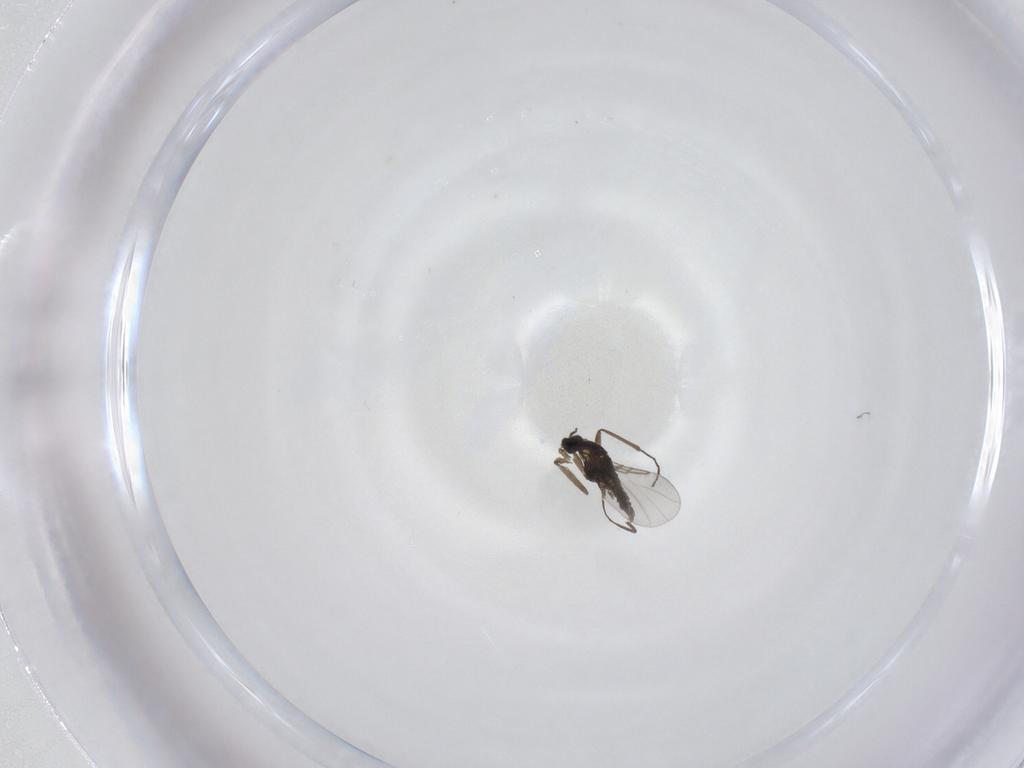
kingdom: Animalia
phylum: Arthropoda
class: Insecta
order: Diptera
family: Cecidomyiidae
